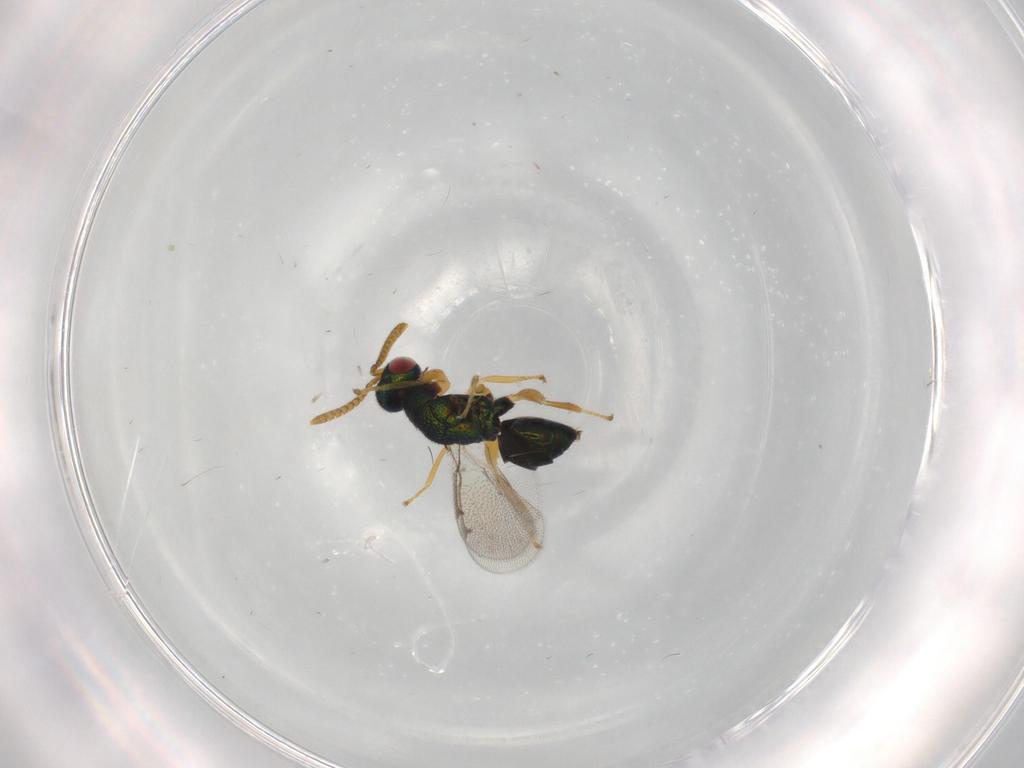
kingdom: Animalia
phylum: Arthropoda
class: Insecta
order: Hymenoptera
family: Torymidae
